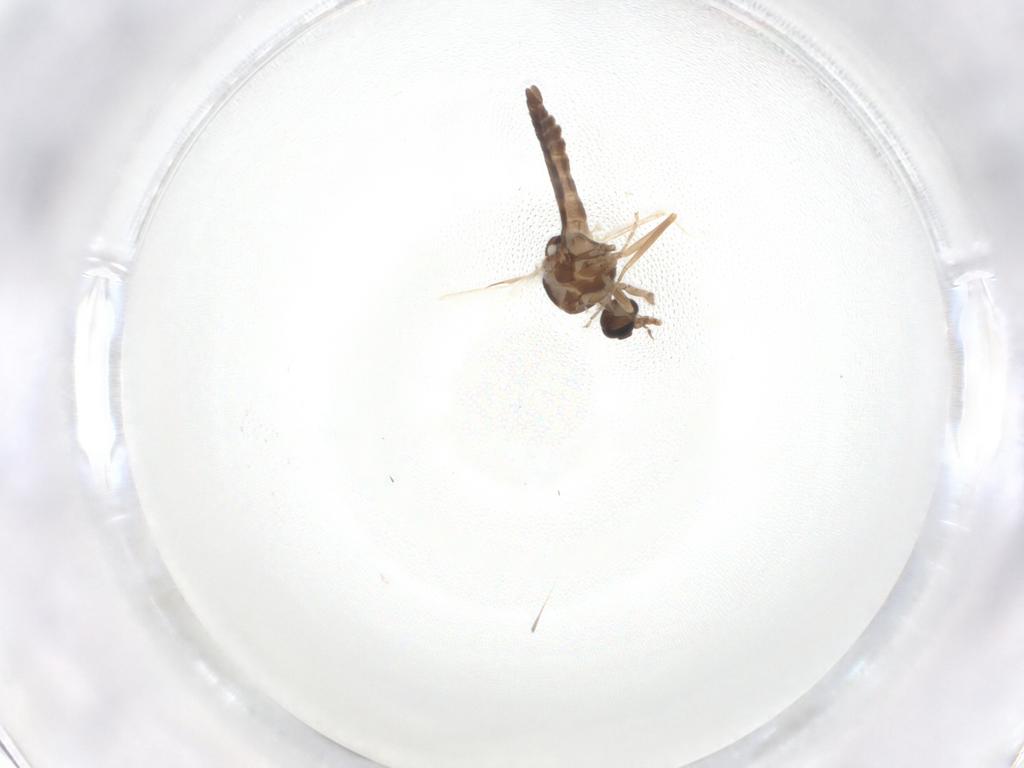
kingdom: Animalia
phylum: Arthropoda
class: Insecta
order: Diptera
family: Ceratopogonidae
